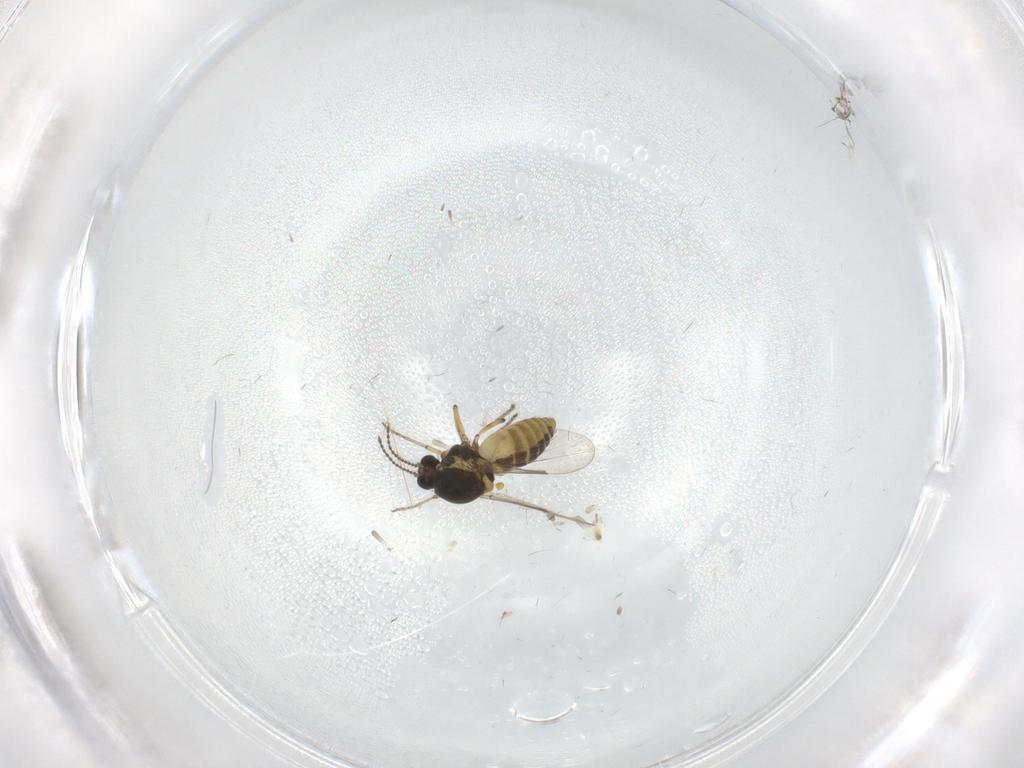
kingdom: Animalia
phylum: Arthropoda
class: Insecta
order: Diptera
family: Ceratopogonidae
